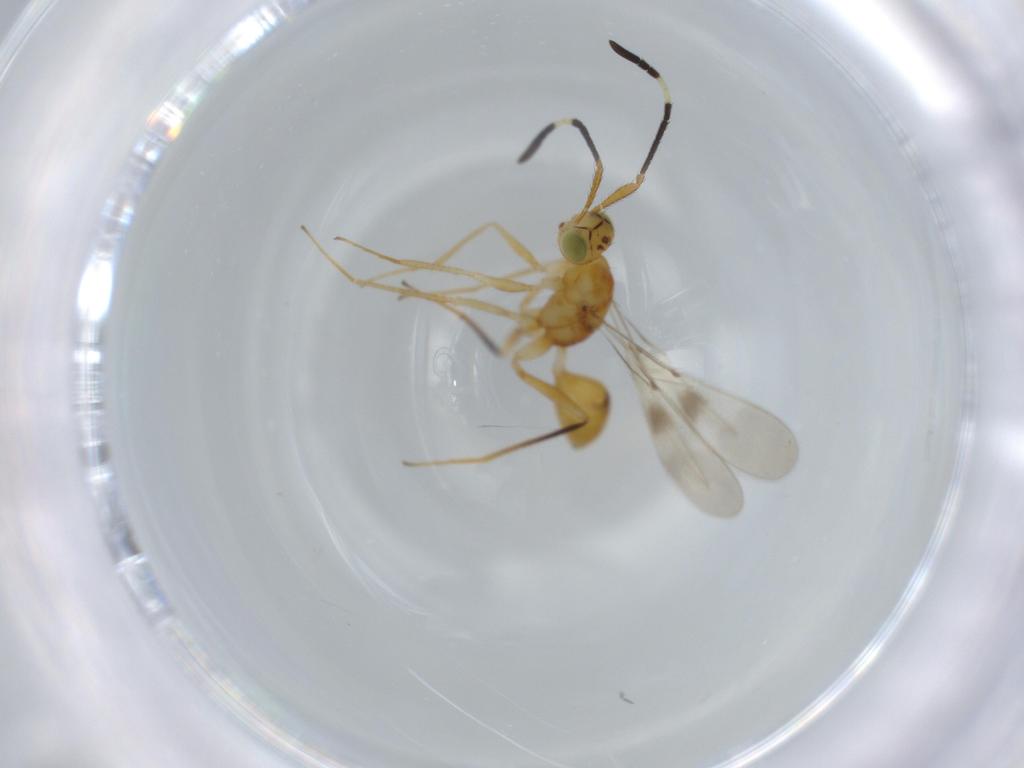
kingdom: Animalia
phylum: Arthropoda
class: Insecta
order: Hymenoptera
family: Mymaridae
